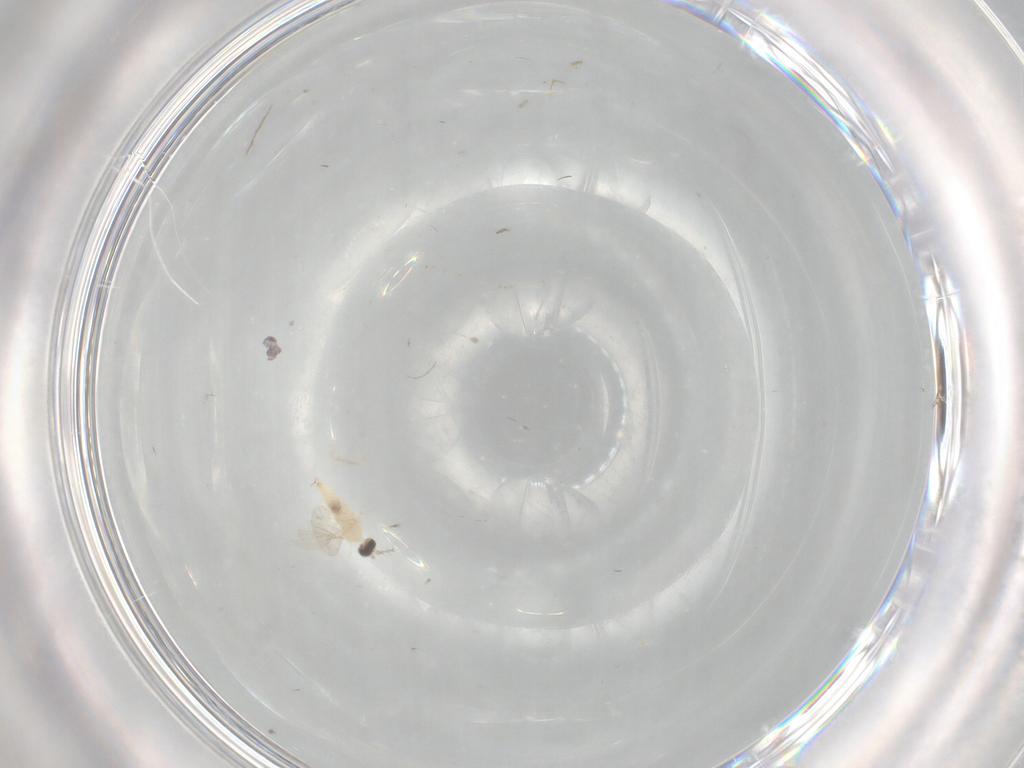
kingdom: Animalia
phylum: Arthropoda
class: Insecta
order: Diptera
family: Cecidomyiidae
